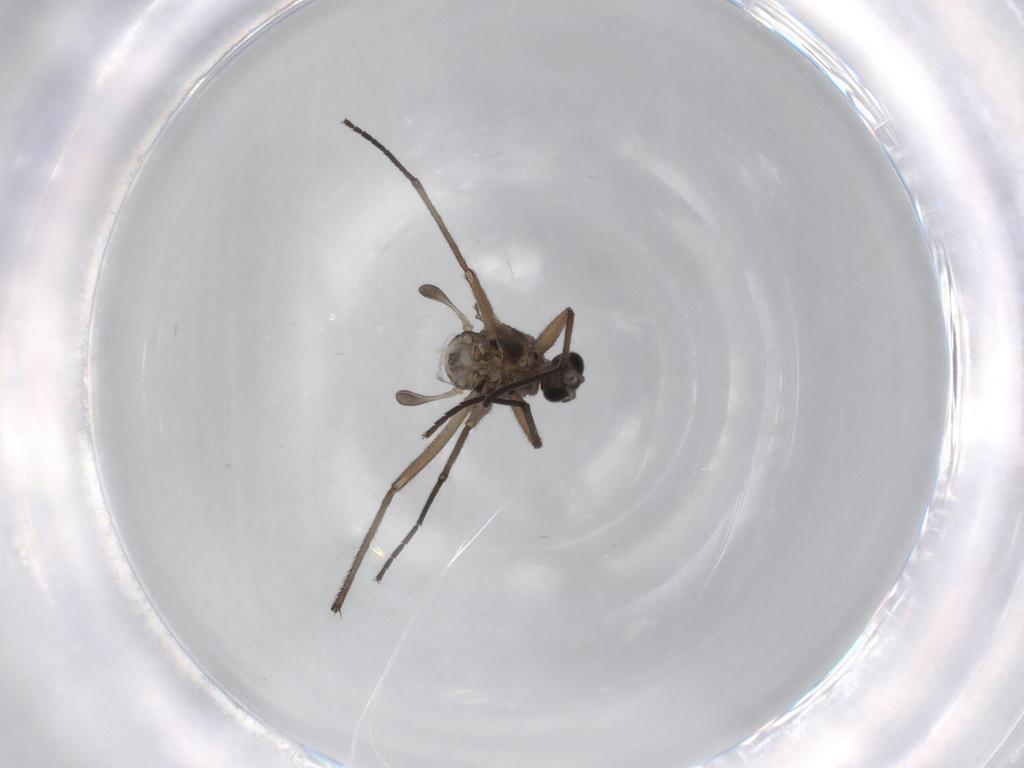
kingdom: Animalia
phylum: Arthropoda
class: Insecta
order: Diptera
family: Sciaridae
